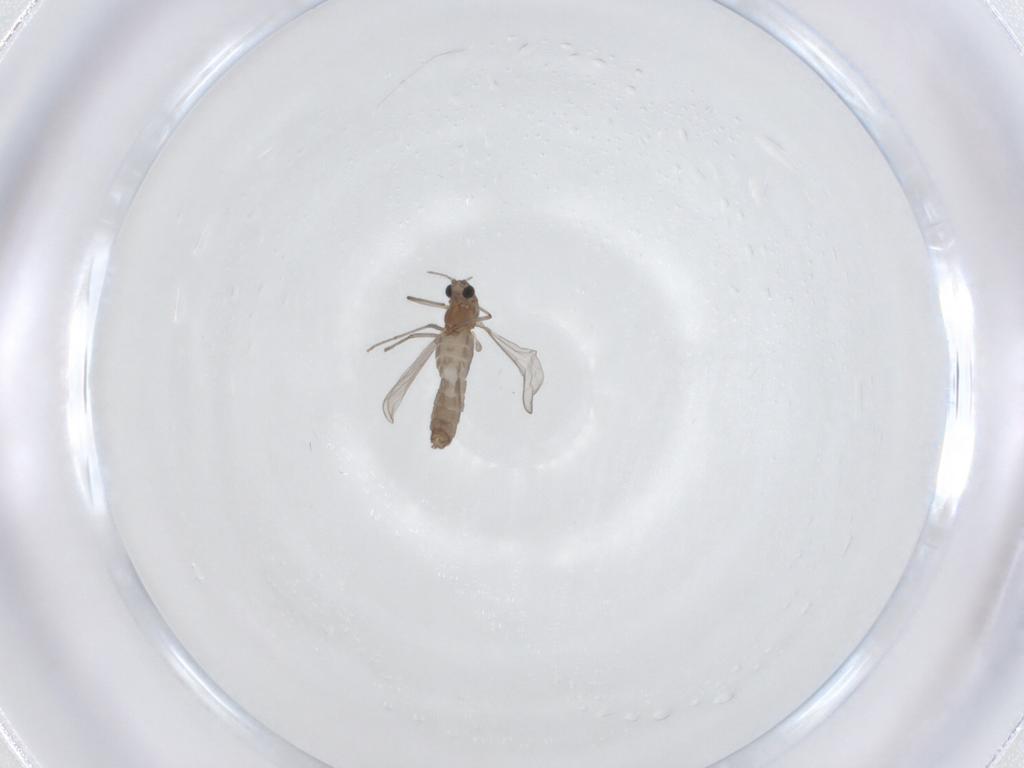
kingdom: Animalia
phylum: Arthropoda
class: Insecta
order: Diptera
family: Chironomidae
